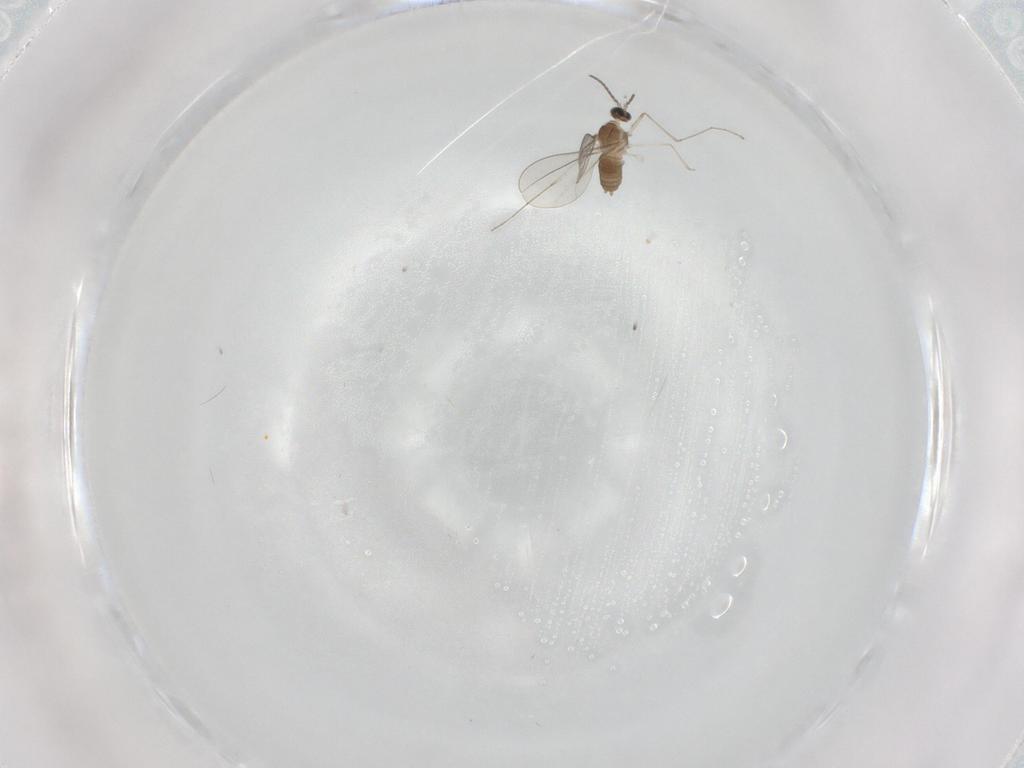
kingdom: Animalia
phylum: Arthropoda
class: Insecta
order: Diptera
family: Cecidomyiidae
